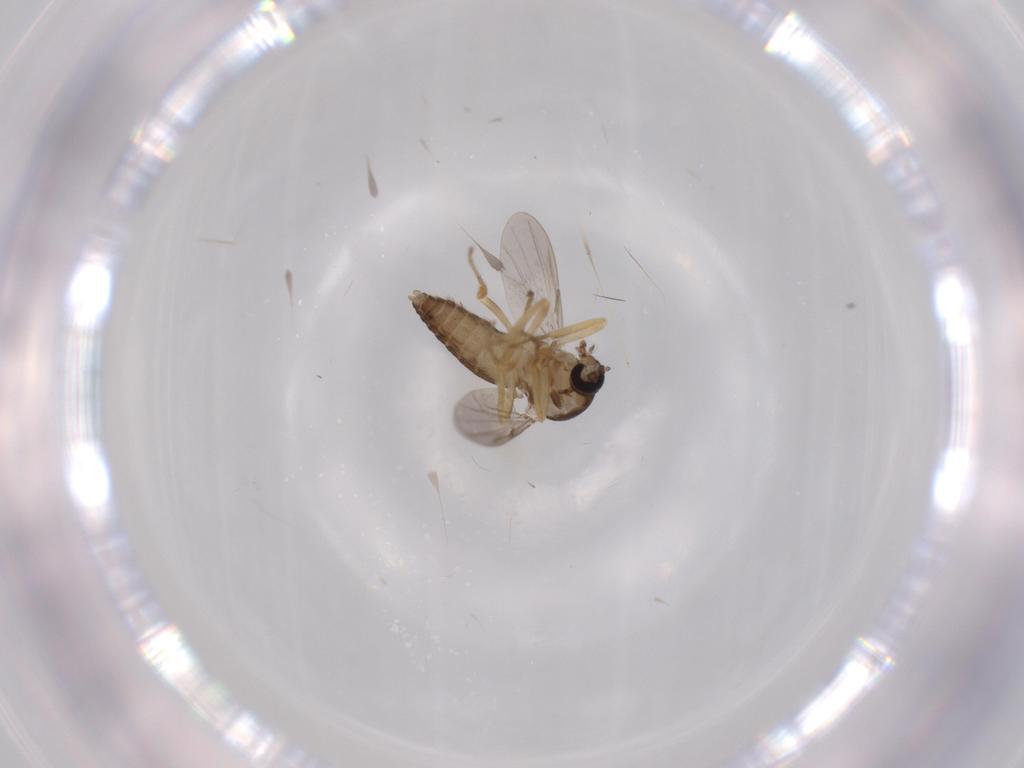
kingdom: Animalia
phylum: Arthropoda
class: Insecta
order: Diptera
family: Ceratopogonidae
